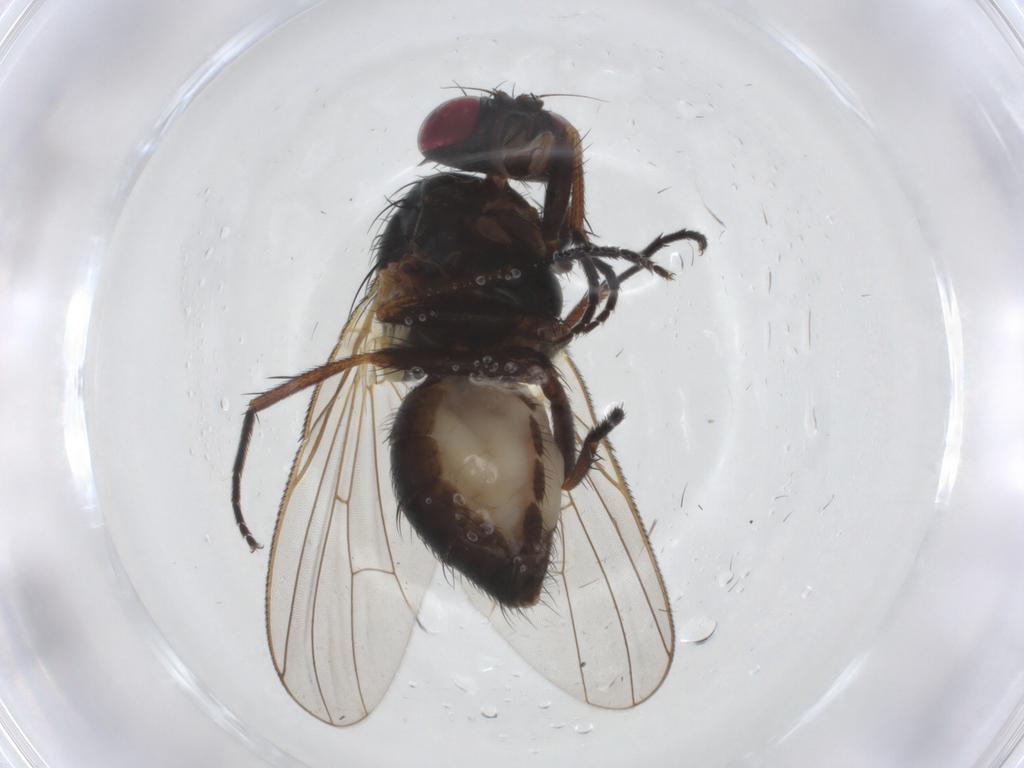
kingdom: Animalia
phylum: Arthropoda
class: Insecta
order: Diptera
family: Fannia
